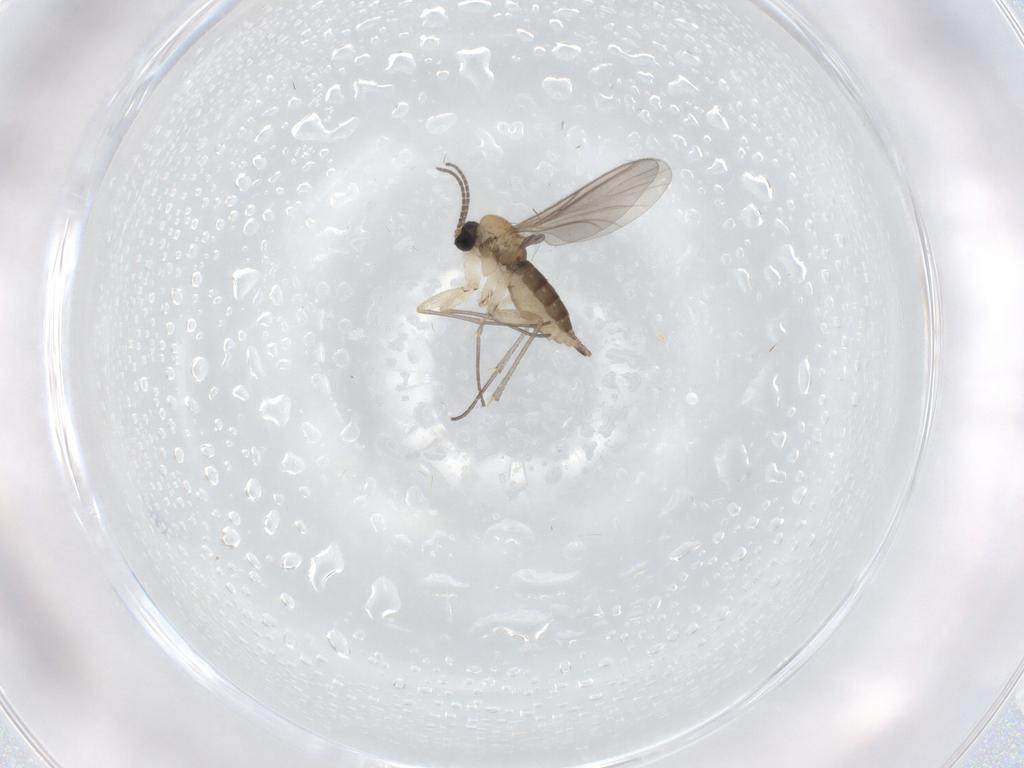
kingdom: Animalia
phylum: Arthropoda
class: Insecta
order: Diptera
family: Sciaridae
